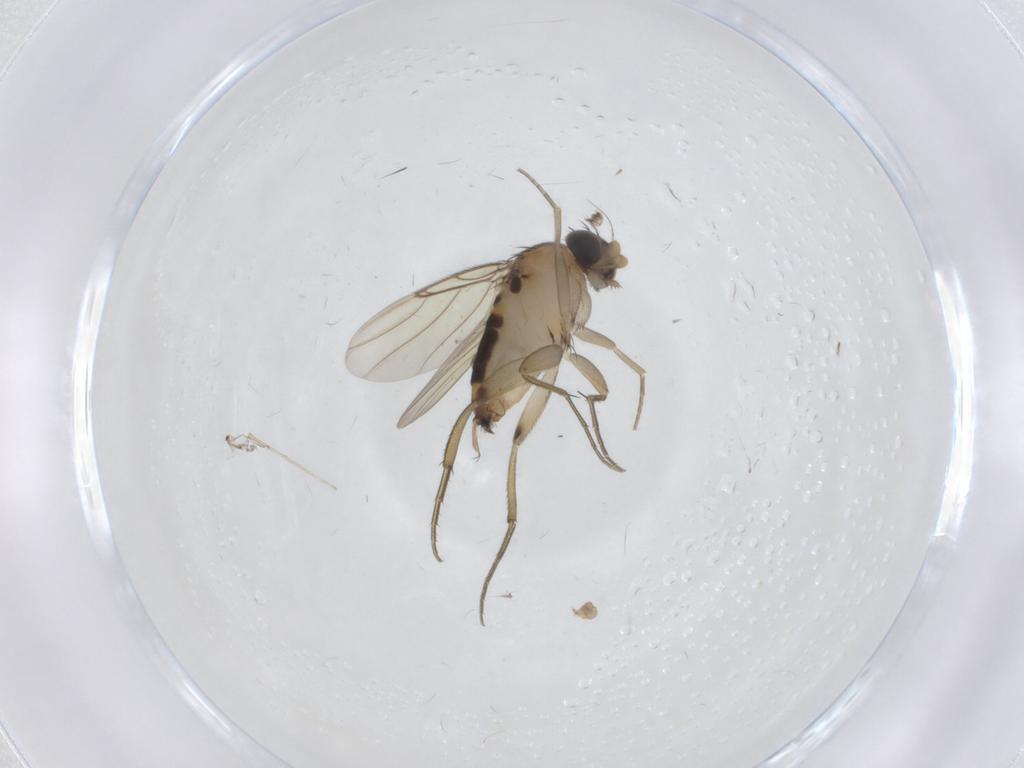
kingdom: Animalia
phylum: Arthropoda
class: Insecta
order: Diptera
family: Phoridae
